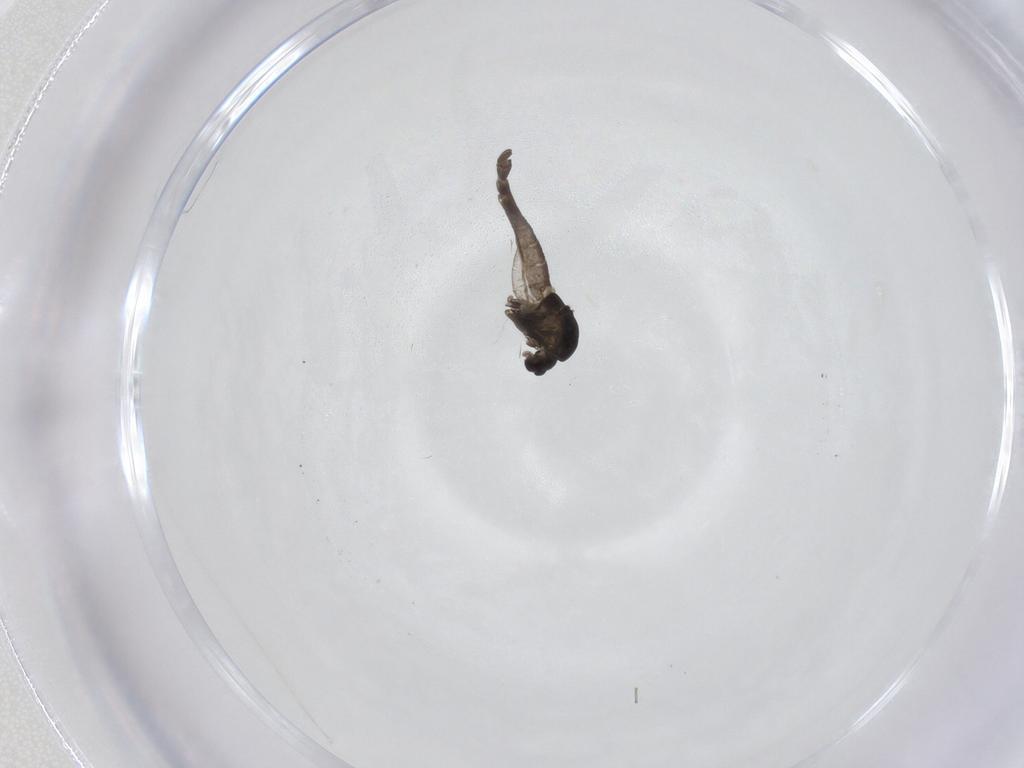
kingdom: Animalia
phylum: Arthropoda
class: Insecta
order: Diptera
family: Chironomidae
